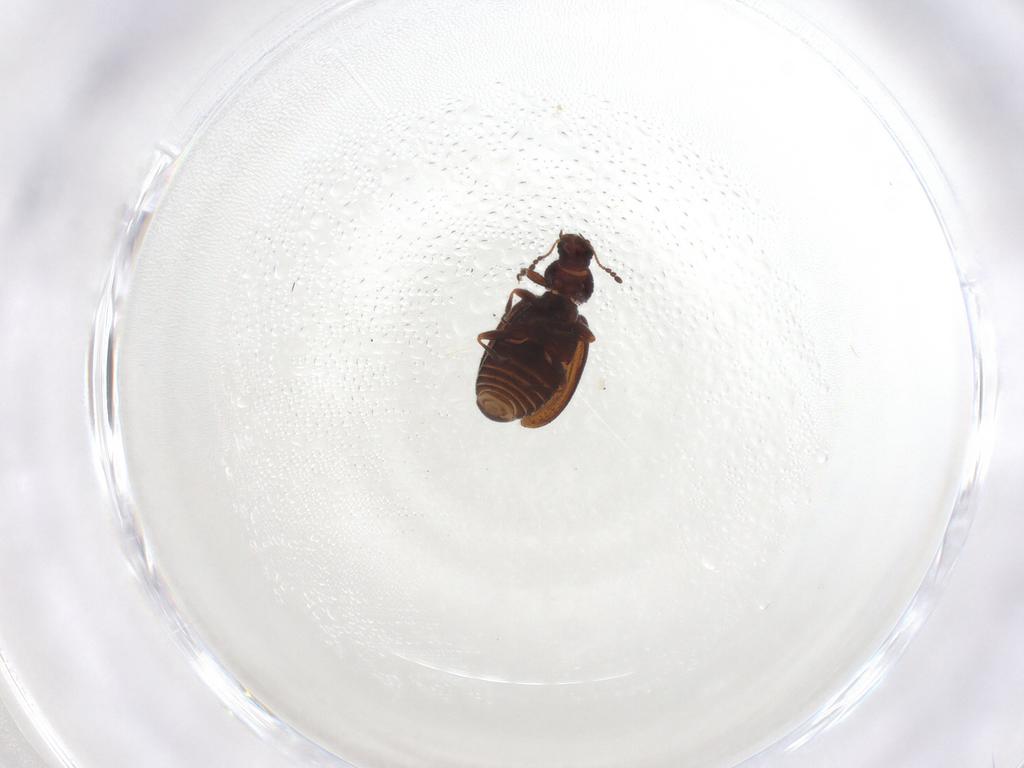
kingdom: Animalia
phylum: Arthropoda
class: Insecta
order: Coleoptera
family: Latridiidae
